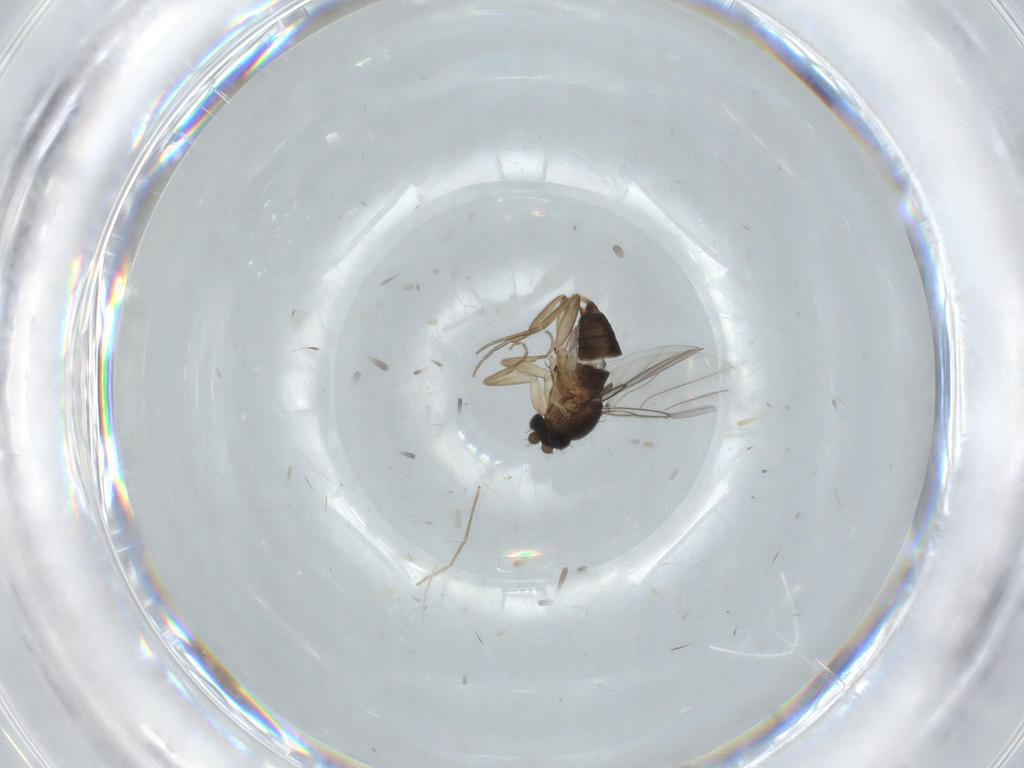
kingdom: Animalia
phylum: Arthropoda
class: Insecta
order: Diptera
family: Phoridae
